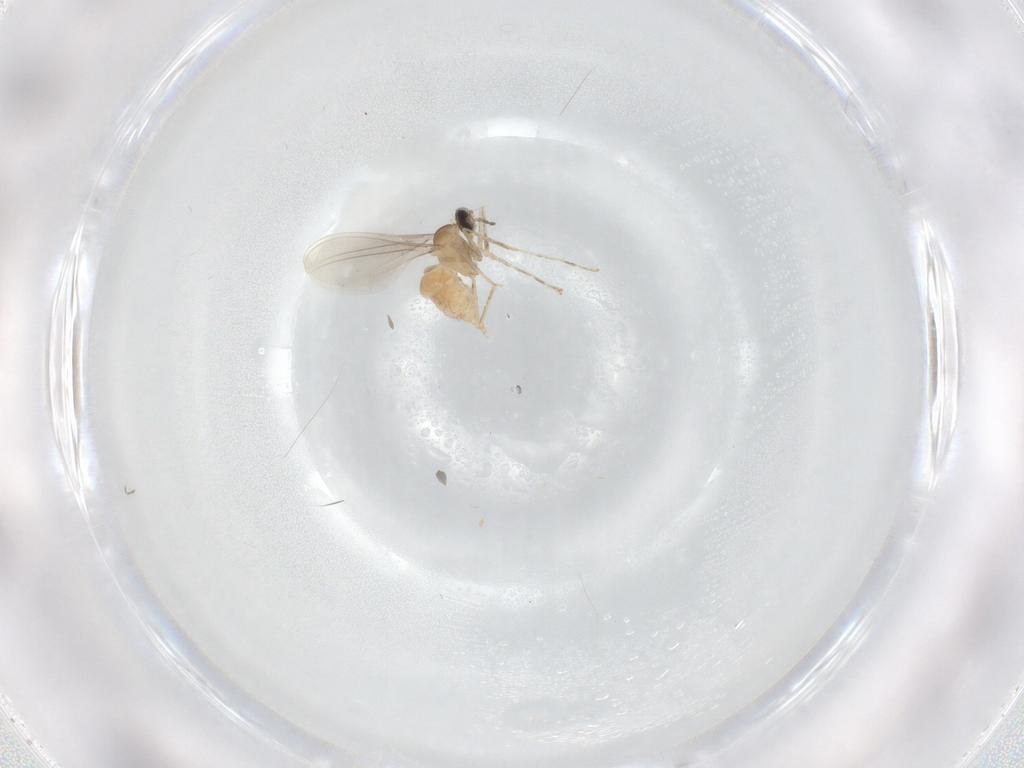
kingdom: Animalia
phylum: Arthropoda
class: Insecta
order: Diptera
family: Cecidomyiidae
